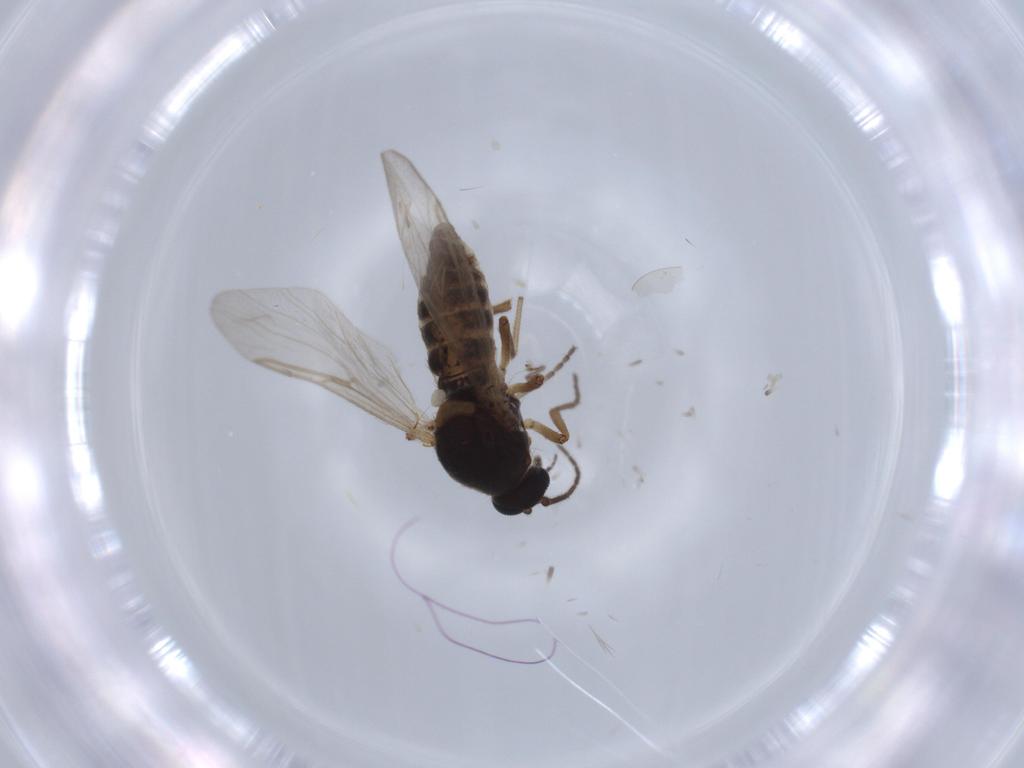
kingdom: Animalia
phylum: Arthropoda
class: Insecta
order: Diptera
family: Ceratopogonidae
